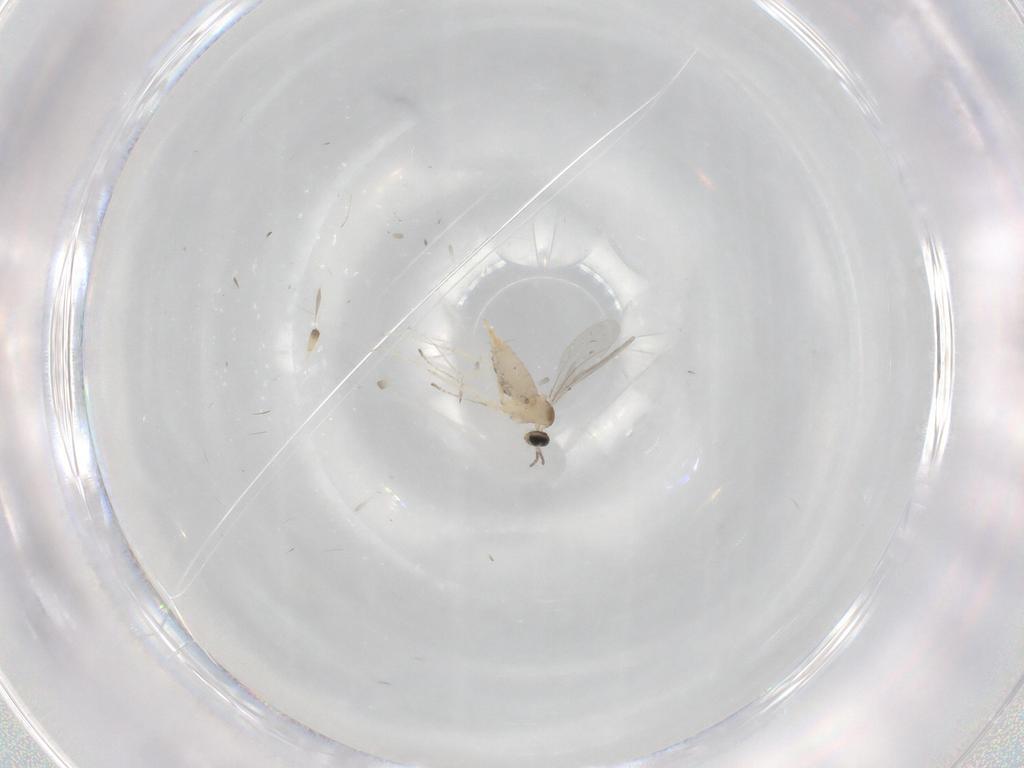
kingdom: Animalia
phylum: Arthropoda
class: Insecta
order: Diptera
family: Cecidomyiidae
